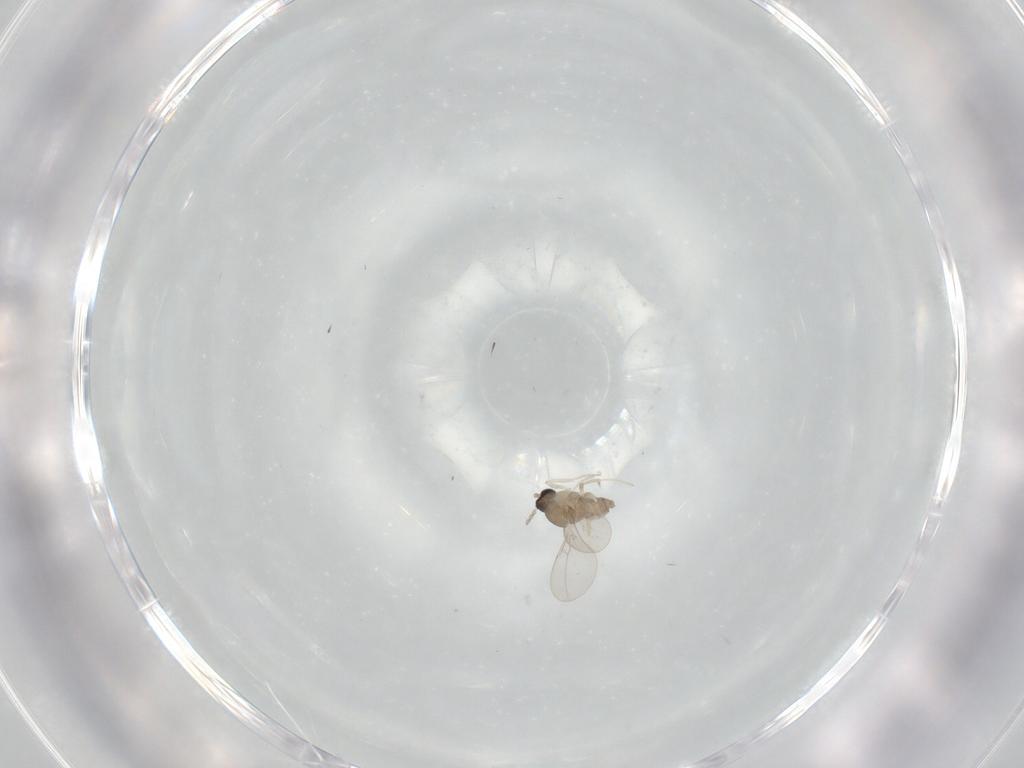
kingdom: Animalia
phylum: Arthropoda
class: Insecta
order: Diptera
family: Cecidomyiidae
